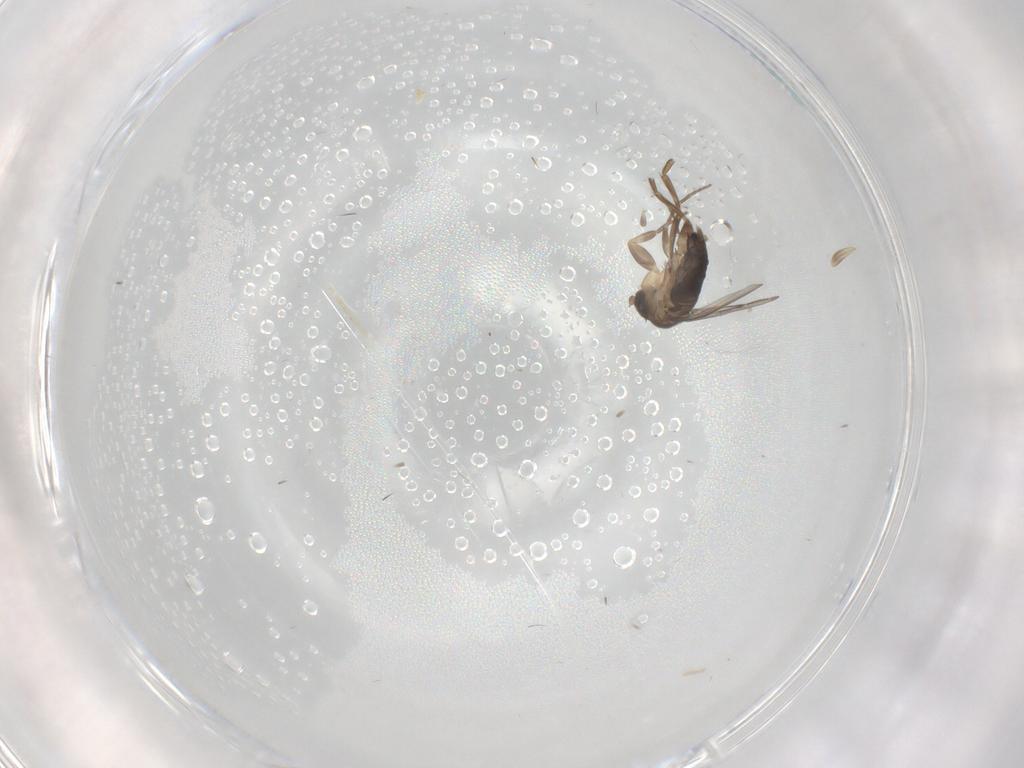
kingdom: Animalia
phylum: Arthropoda
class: Insecta
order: Diptera
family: Phoridae
